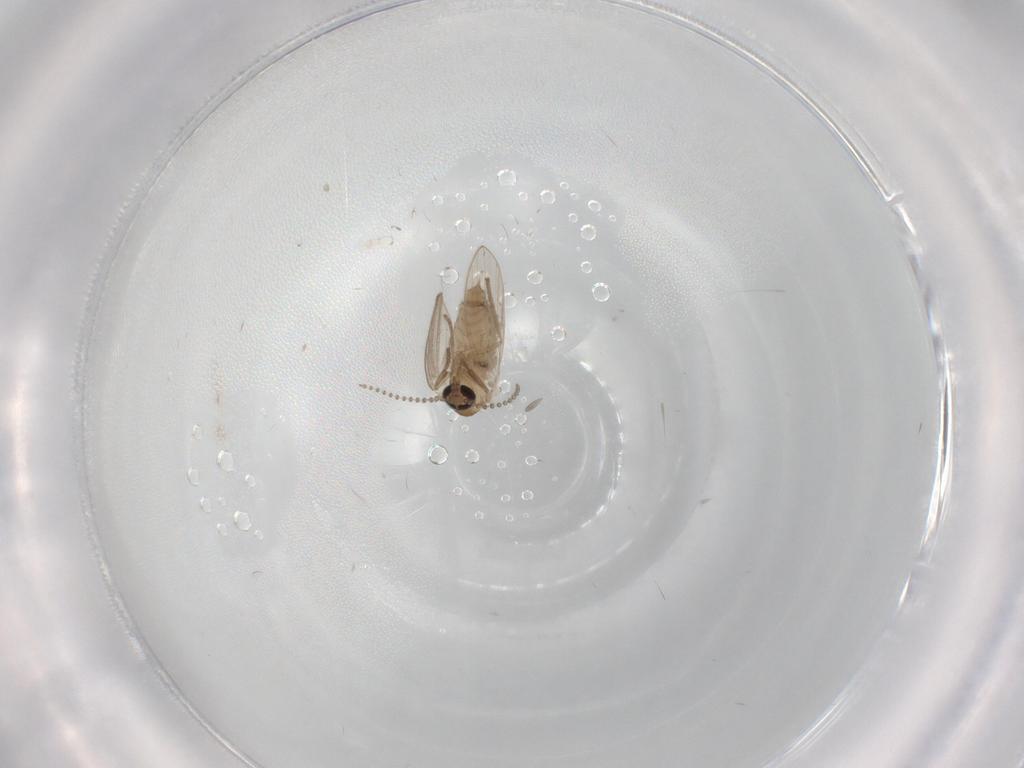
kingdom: Animalia
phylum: Arthropoda
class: Insecta
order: Diptera
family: Psychodidae
